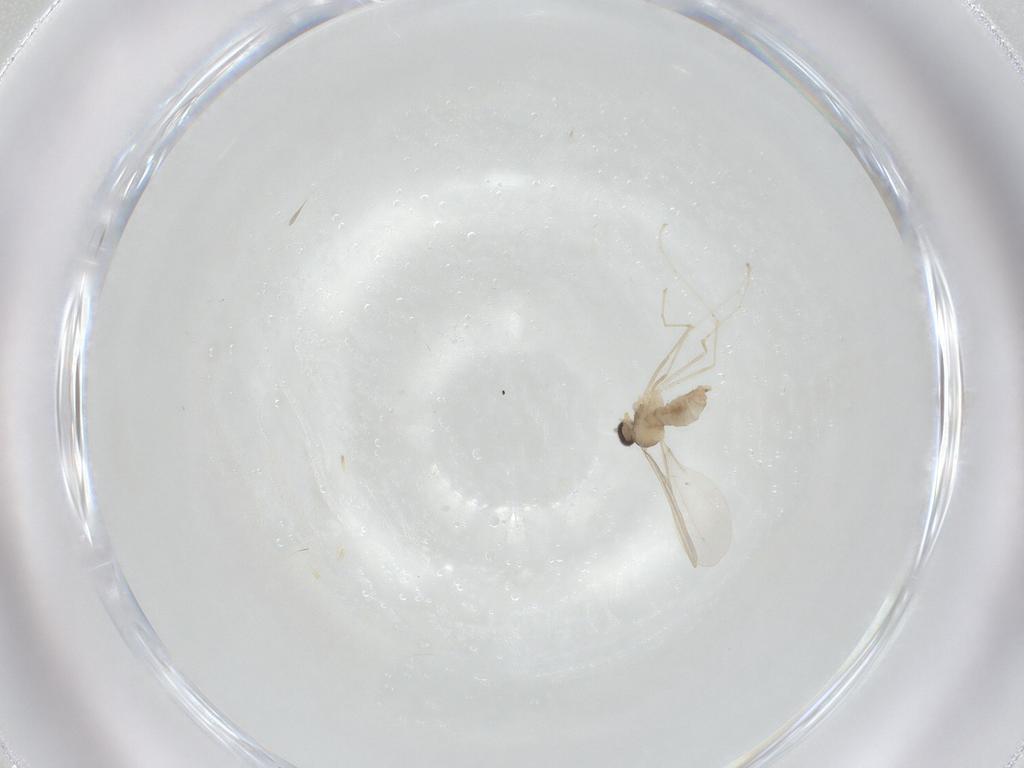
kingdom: Animalia
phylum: Arthropoda
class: Insecta
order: Diptera
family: Cecidomyiidae
